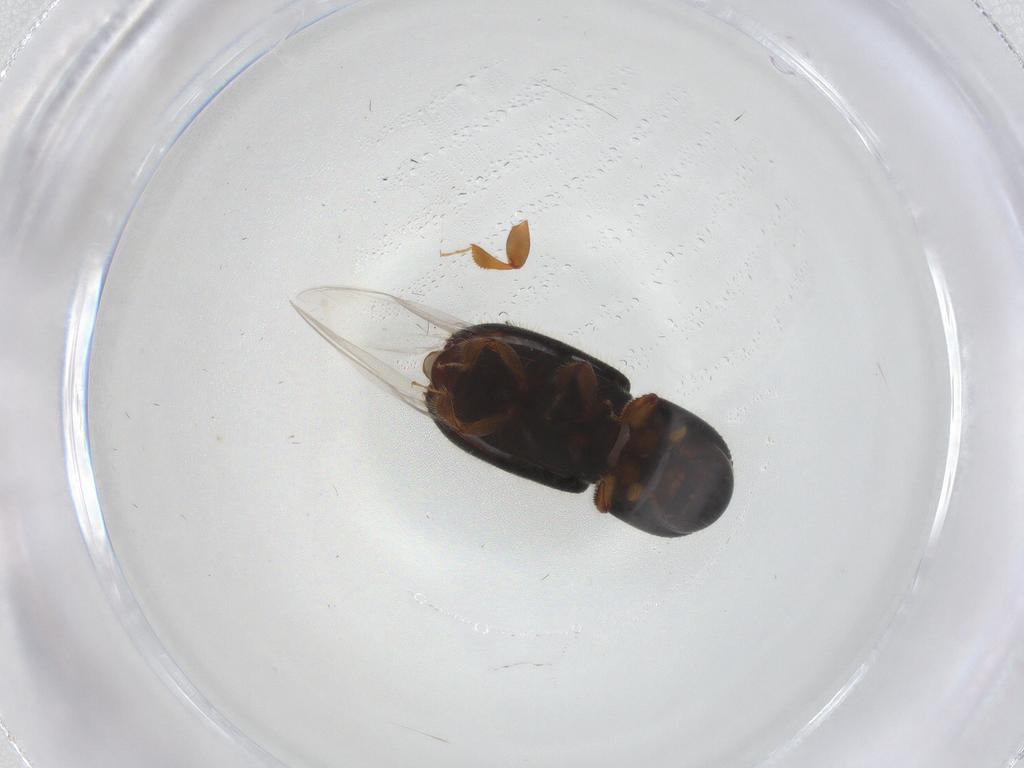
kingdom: Animalia
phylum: Arthropoda
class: Insecta
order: Coleoptera
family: Curculionidae
